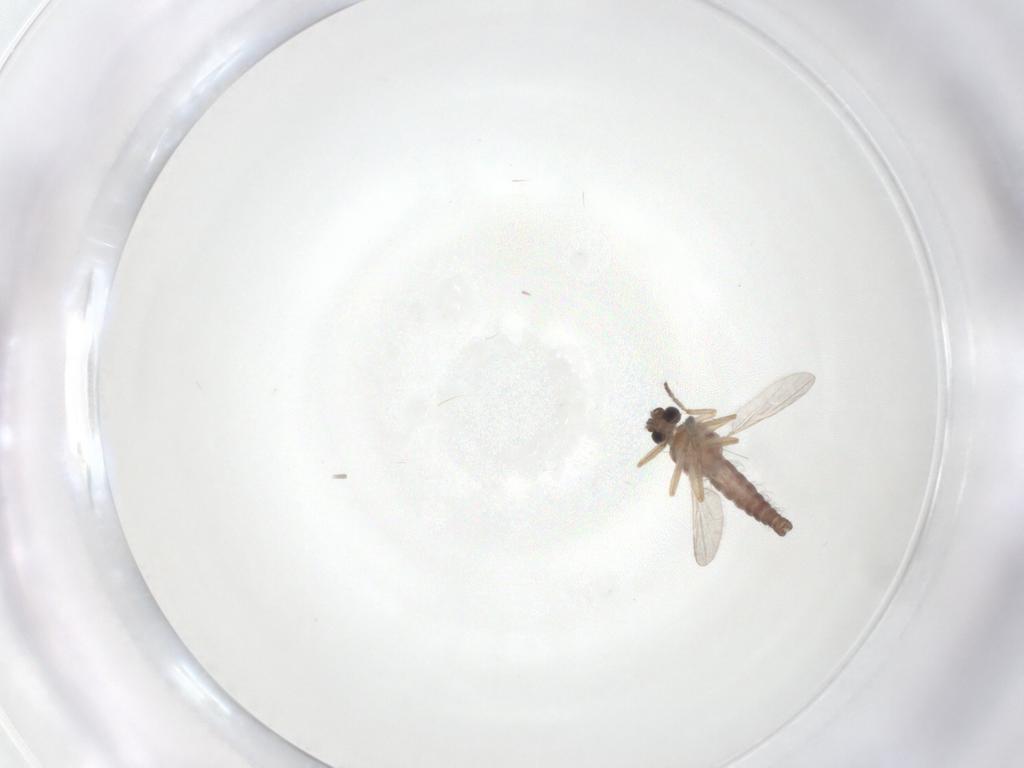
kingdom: Animalia
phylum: Arthropoda
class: Insecta
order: Diptera
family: Ceratopogonidae
